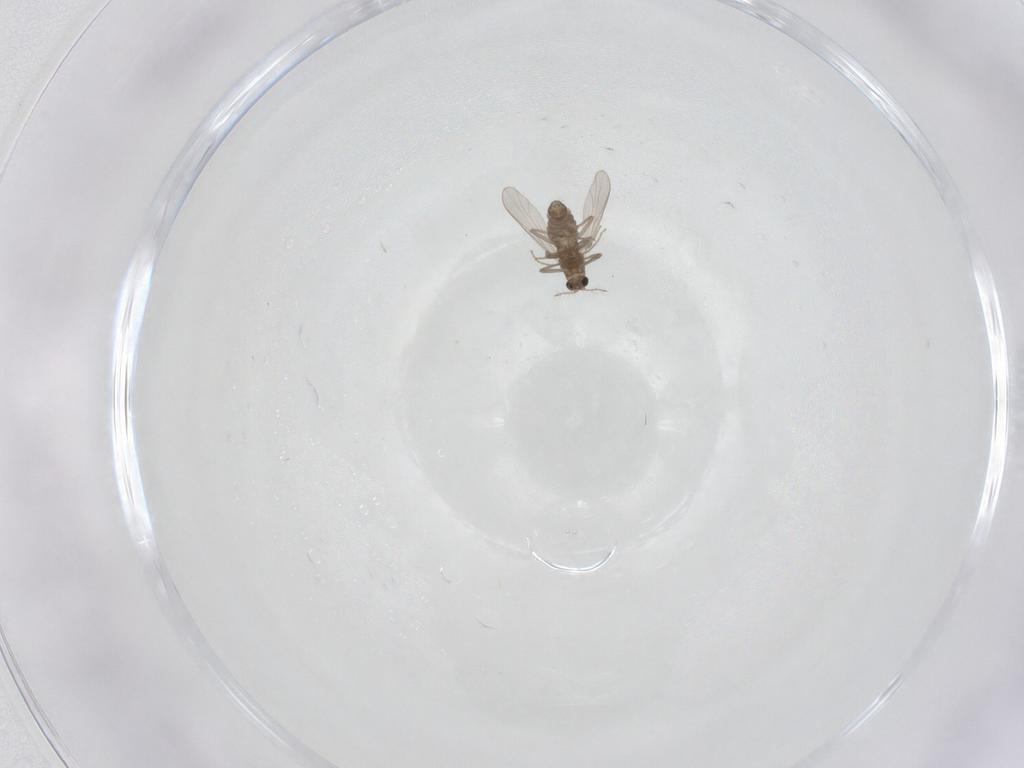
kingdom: Animalia
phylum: Arthropoda
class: Insecta
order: Diptera
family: Chironomidae
